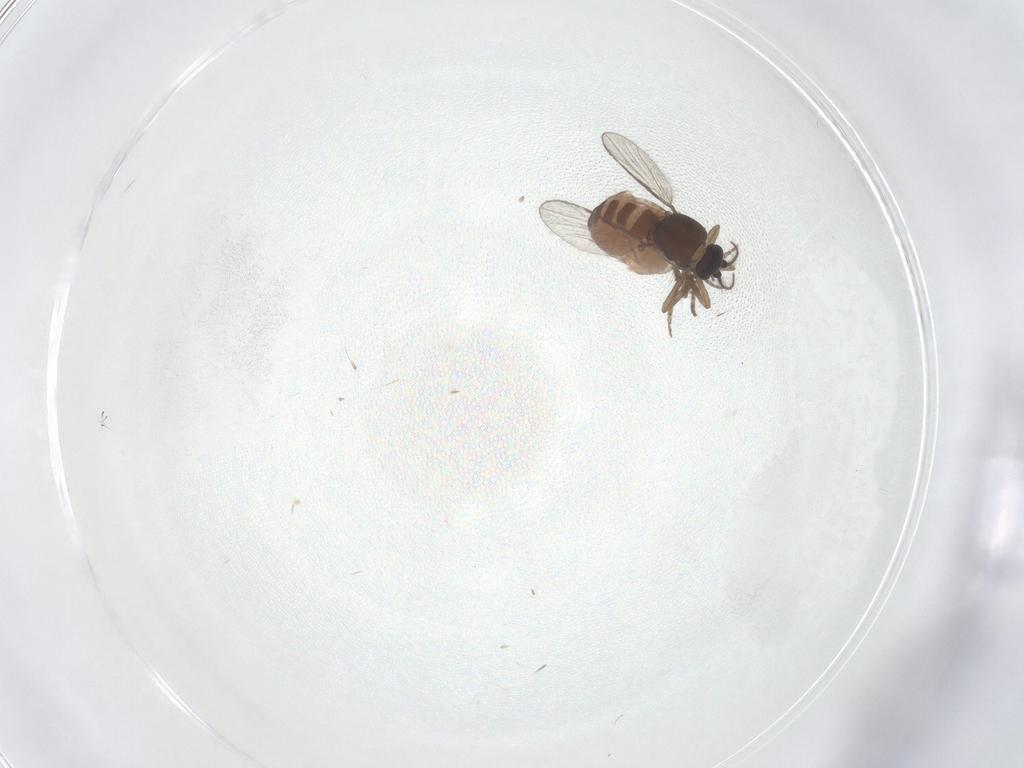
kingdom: Animalia
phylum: Arthropoda
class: Insecta
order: Diptera
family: Ceratopogonidae
